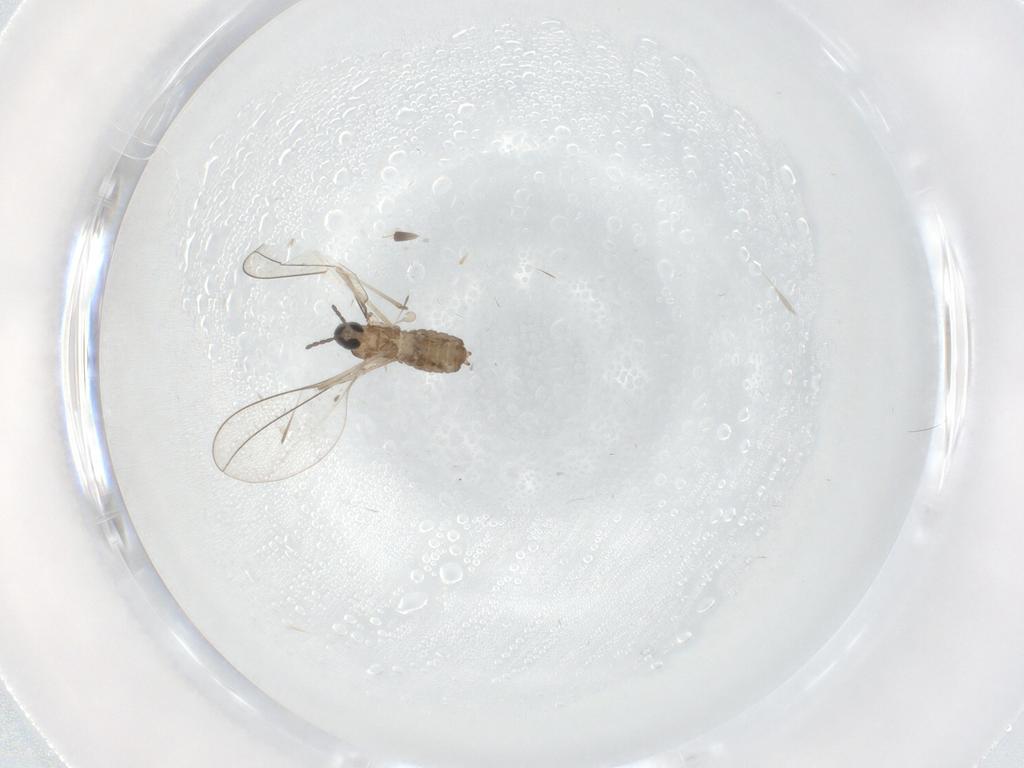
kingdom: Animalia
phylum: Arthropoda
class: Insecta
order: Diptera
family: Cecidomyiidae
